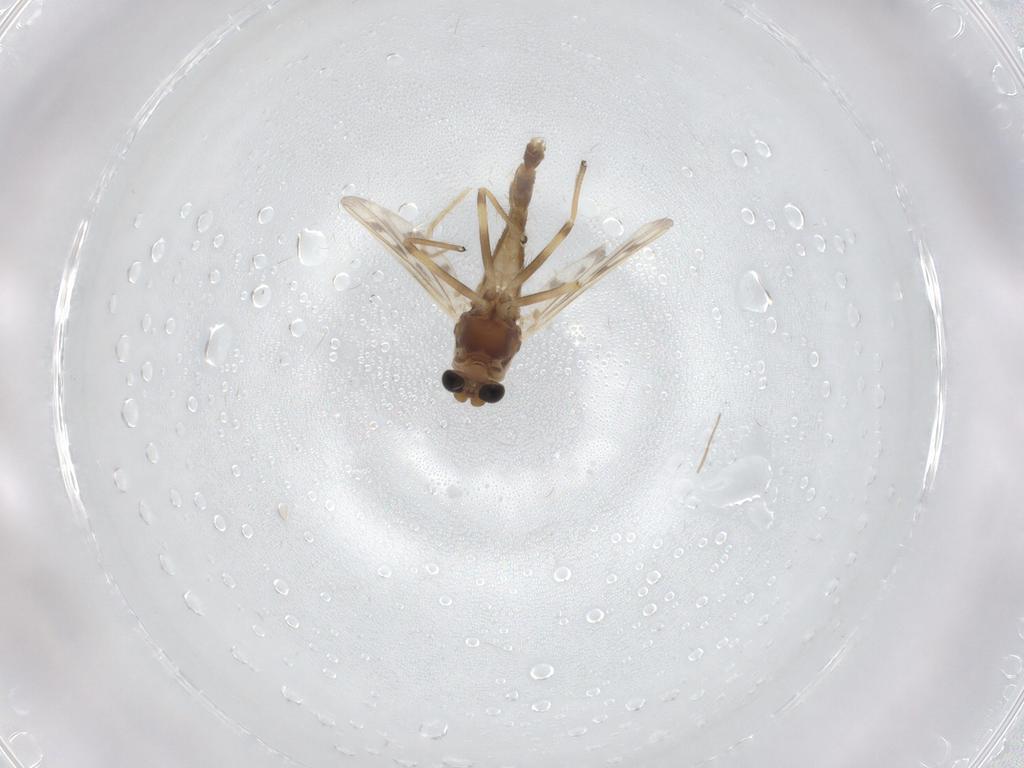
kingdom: Animalia
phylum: Arthropoda
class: Insecta
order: Diptera
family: Chironomidae
